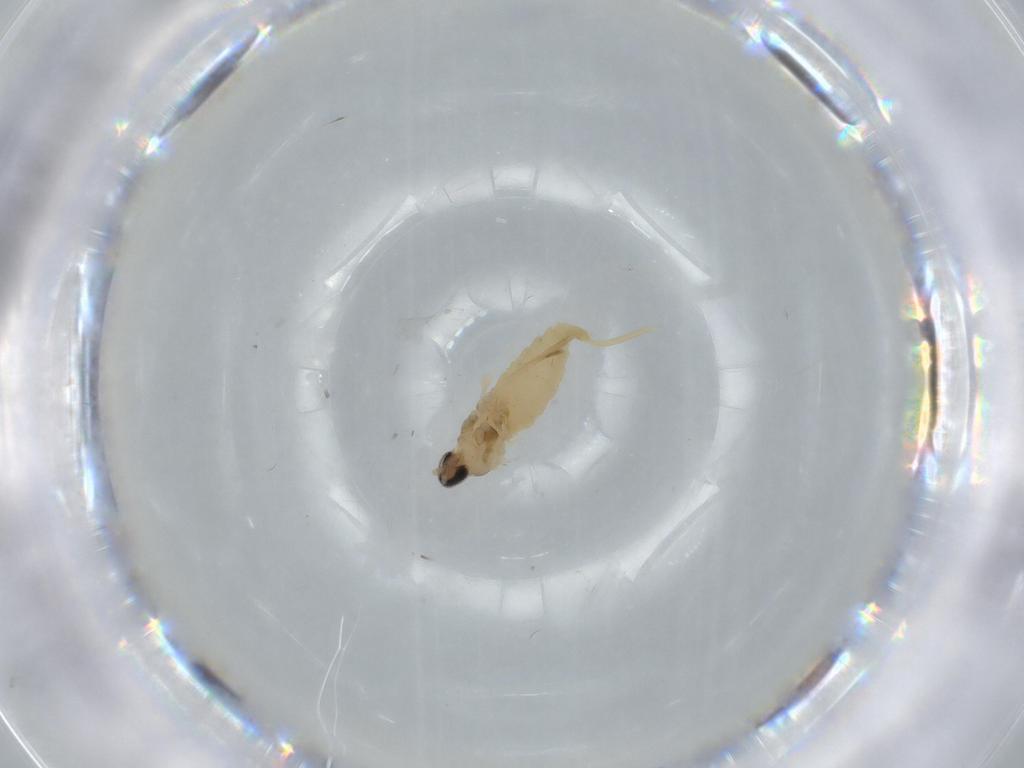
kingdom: Animalia
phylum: Arthropoda
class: Insecta
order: Diptera
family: Cecidomyiidae
